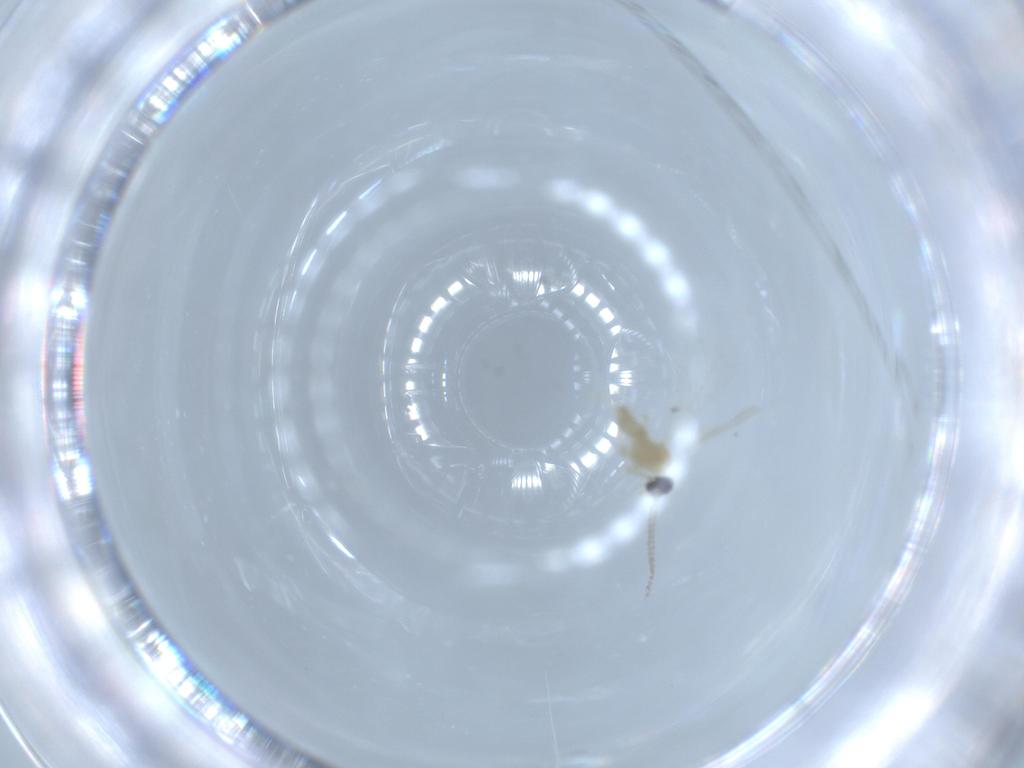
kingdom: Animalia
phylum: Arthropoda
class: Insecta
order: Diptera
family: Cecidomyiidae
